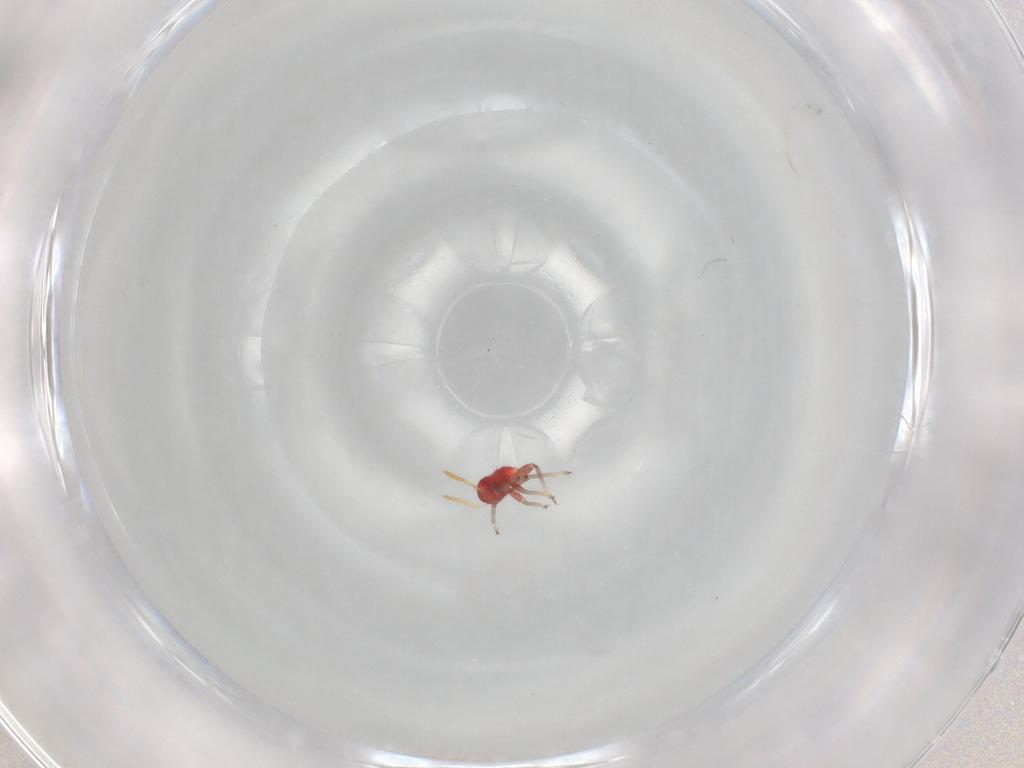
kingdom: Animalia
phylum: Arthropoda
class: Insecta
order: Hemiptera
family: Miridae
